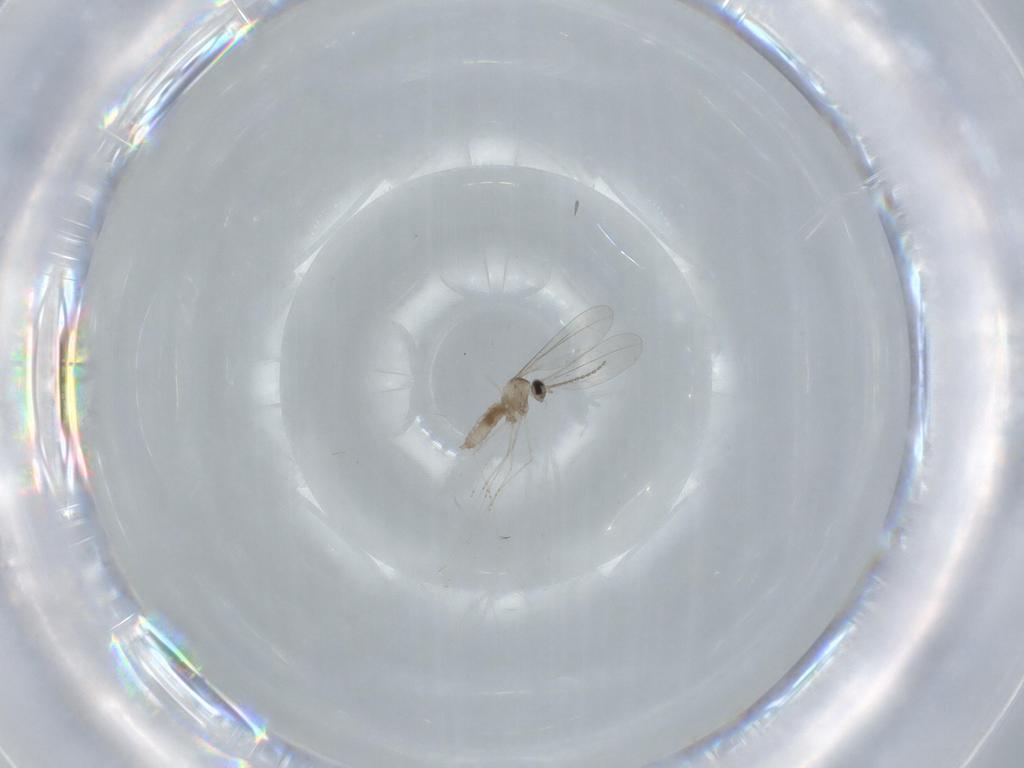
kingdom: Animalia
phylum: Arthropoda
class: Insecta
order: Diptera
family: Cecidomyiidae
